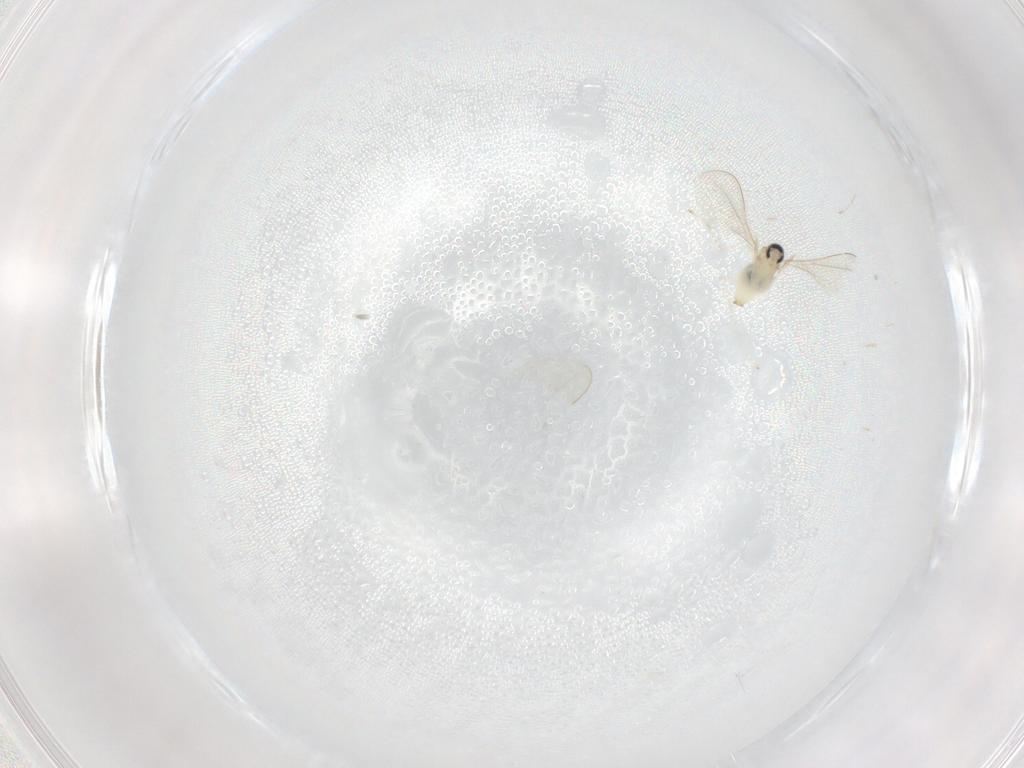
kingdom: Animalia
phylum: Arthropoda
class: Insecta
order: Diptera
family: Cecidomyiidae
